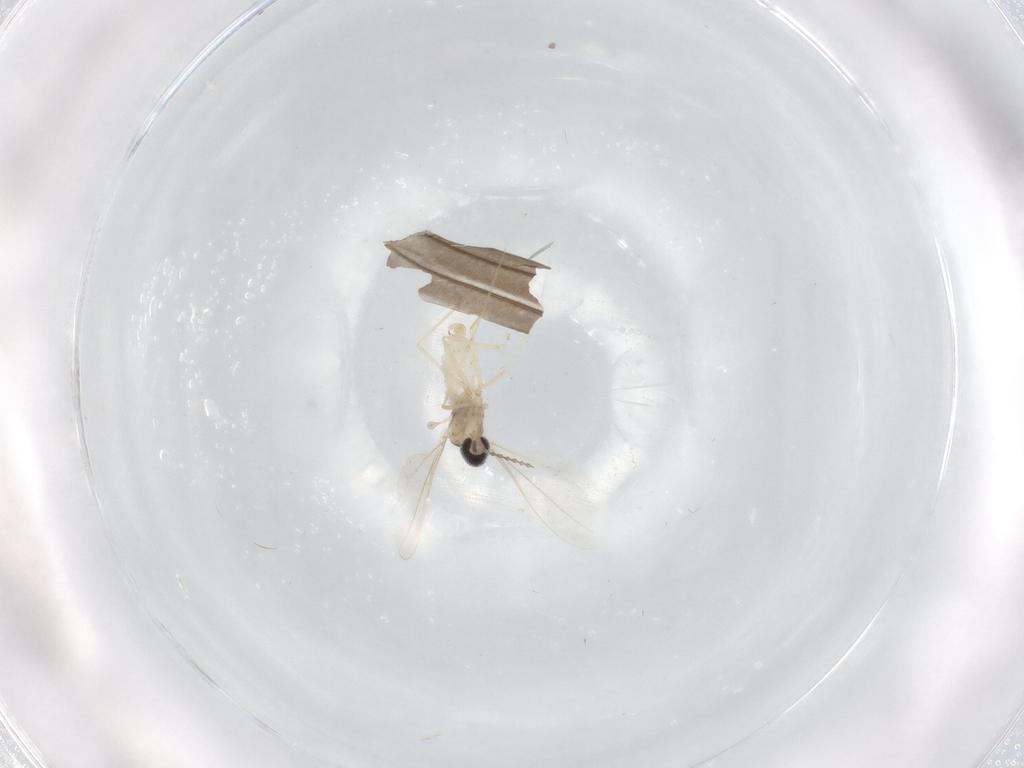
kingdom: Animalia
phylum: Arthropoda
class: Insecta
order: Diptera
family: Cecidomyiidae
